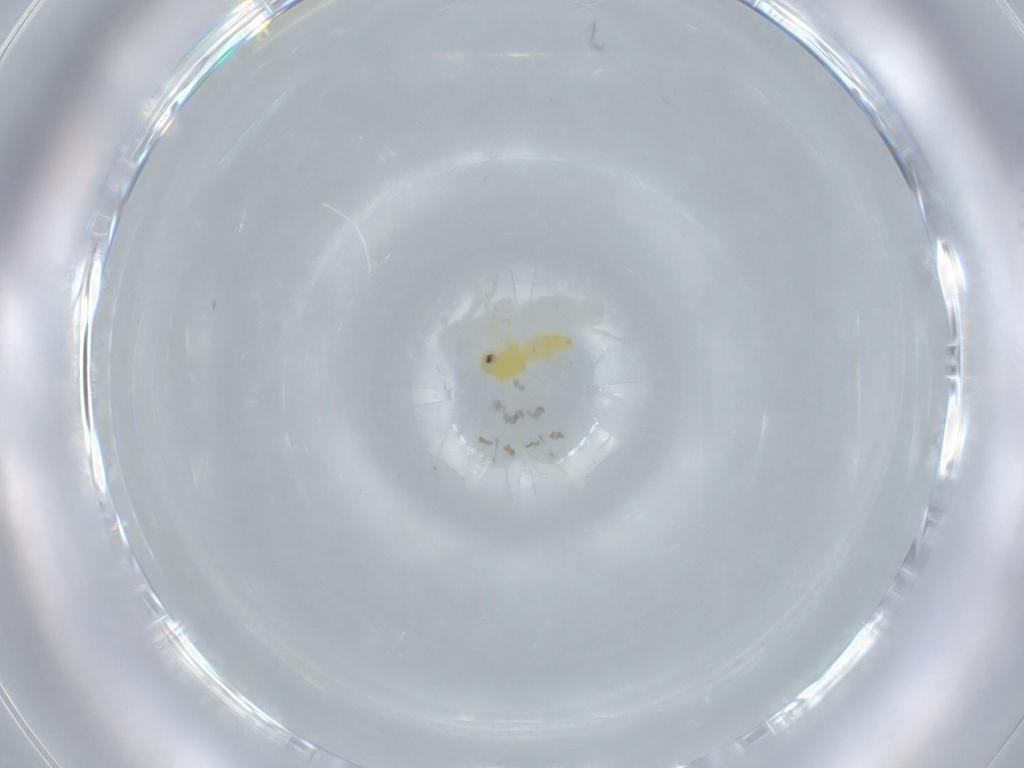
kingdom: Animalia
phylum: Arthropoda
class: Insecta
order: Hemiptera
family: Aleyrodidae
